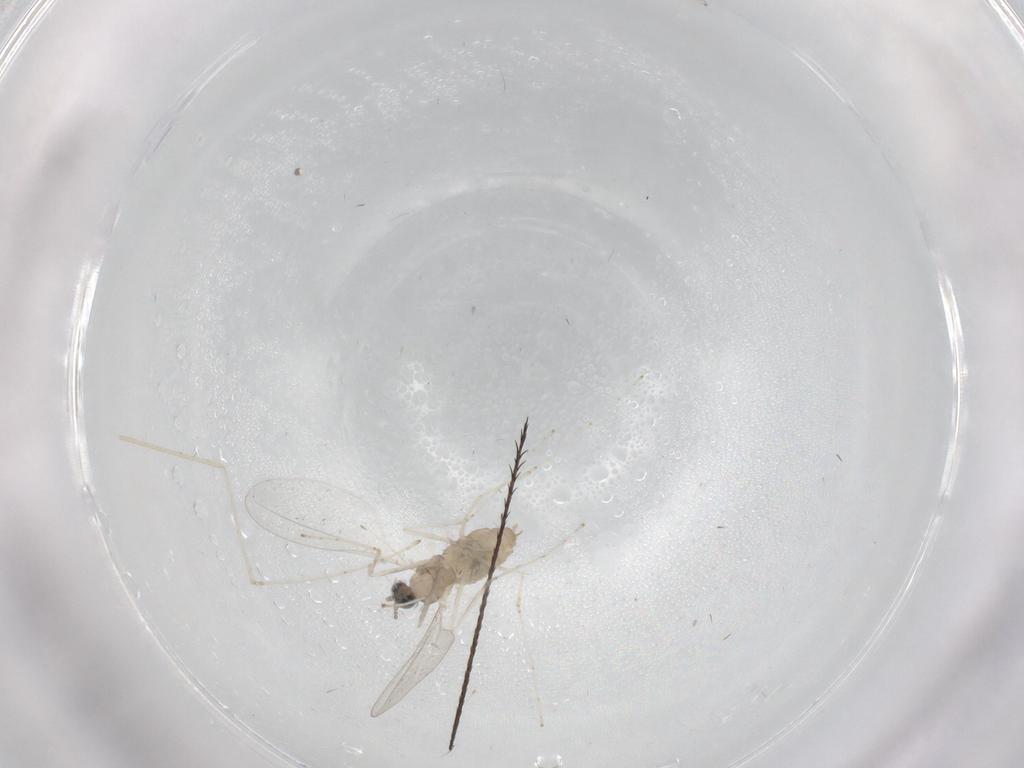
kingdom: Animalia
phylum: Arthropoda
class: Insecta
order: Diptera
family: Cecidomyiidae
